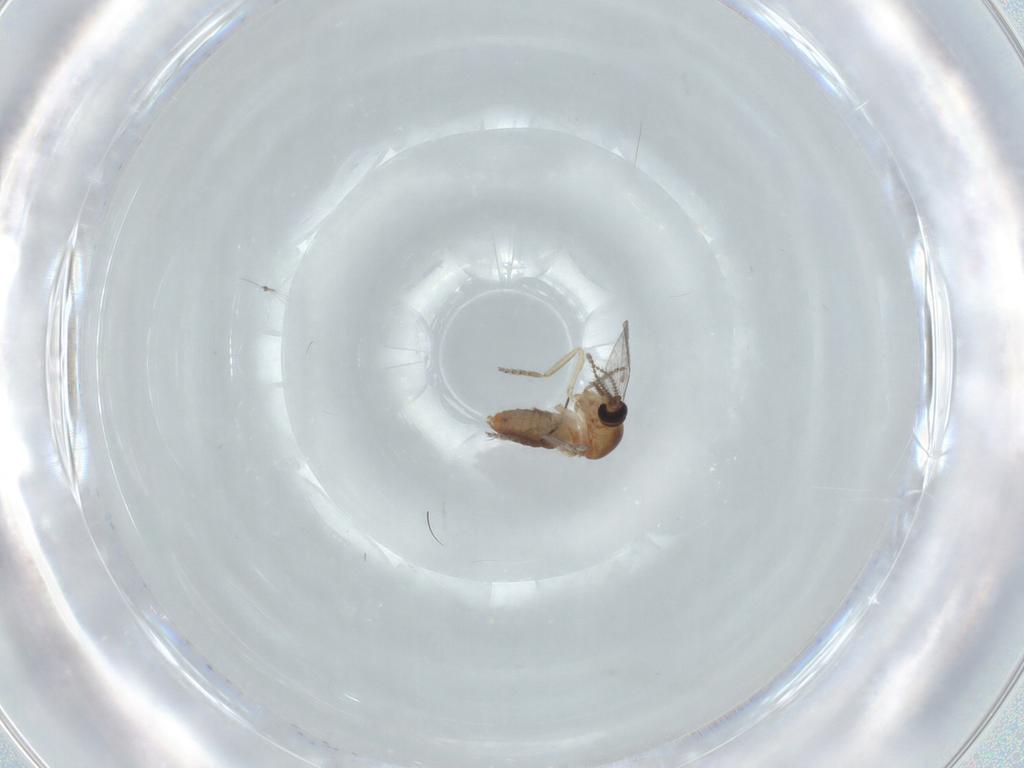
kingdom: Animalia
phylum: Arthropoda
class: Insecta
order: Diptera
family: Ceratopogonidae
